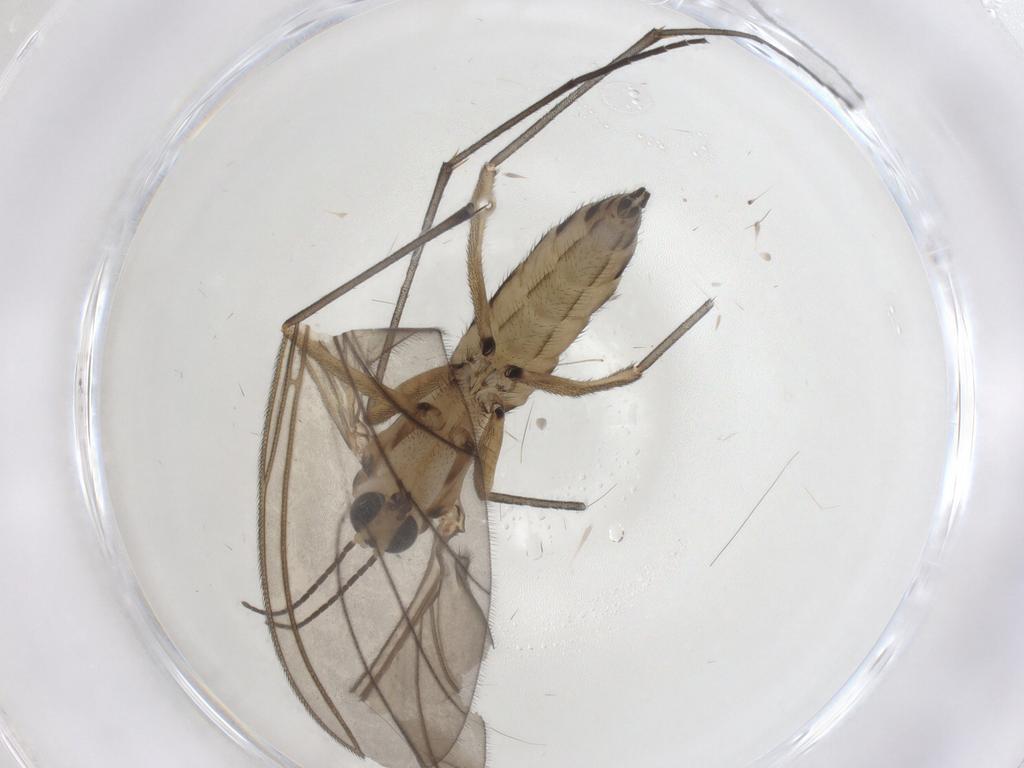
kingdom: Animalia
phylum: Arthropoda
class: Insecta
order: Diptera
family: Sciaridae
